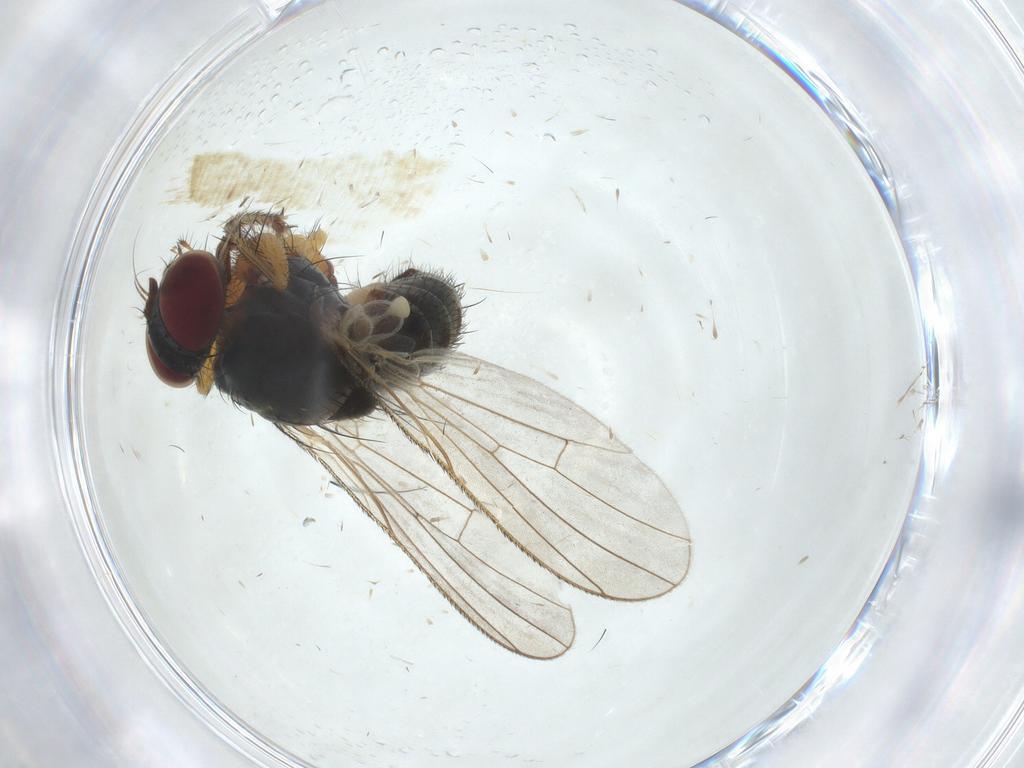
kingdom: Animalia
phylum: Arthropoda
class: Insecta
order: Diptera
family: Muscidae
